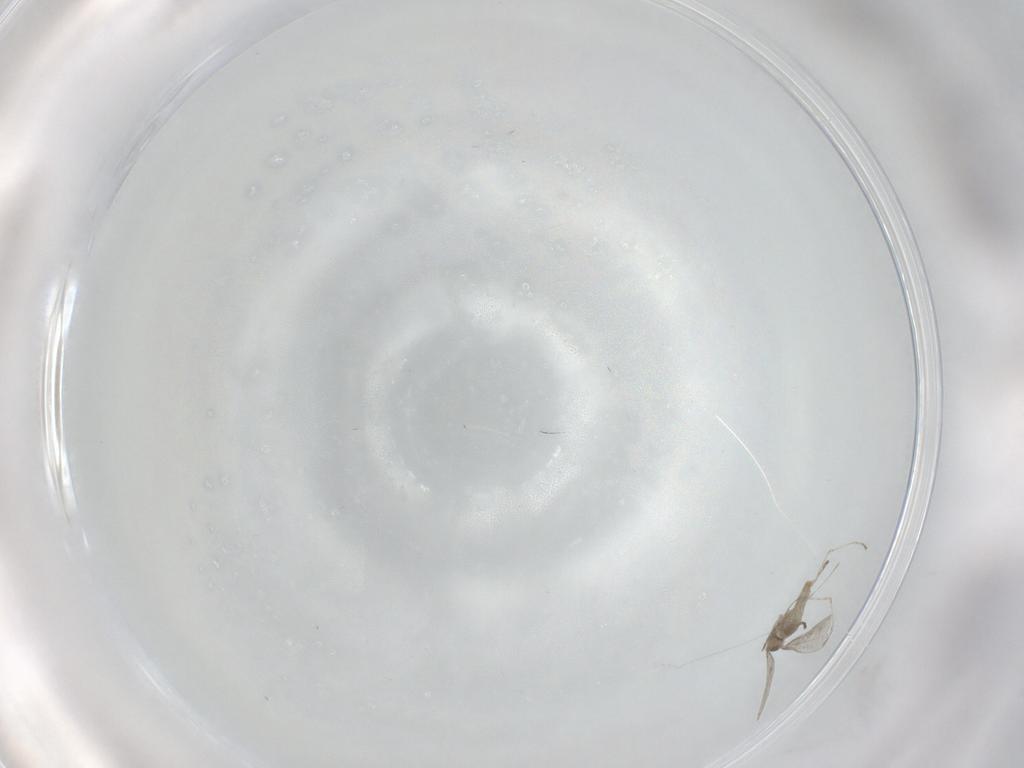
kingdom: Animalia
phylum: Arthropoda
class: Insecta
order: Diptera
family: Cecidomyiidae
